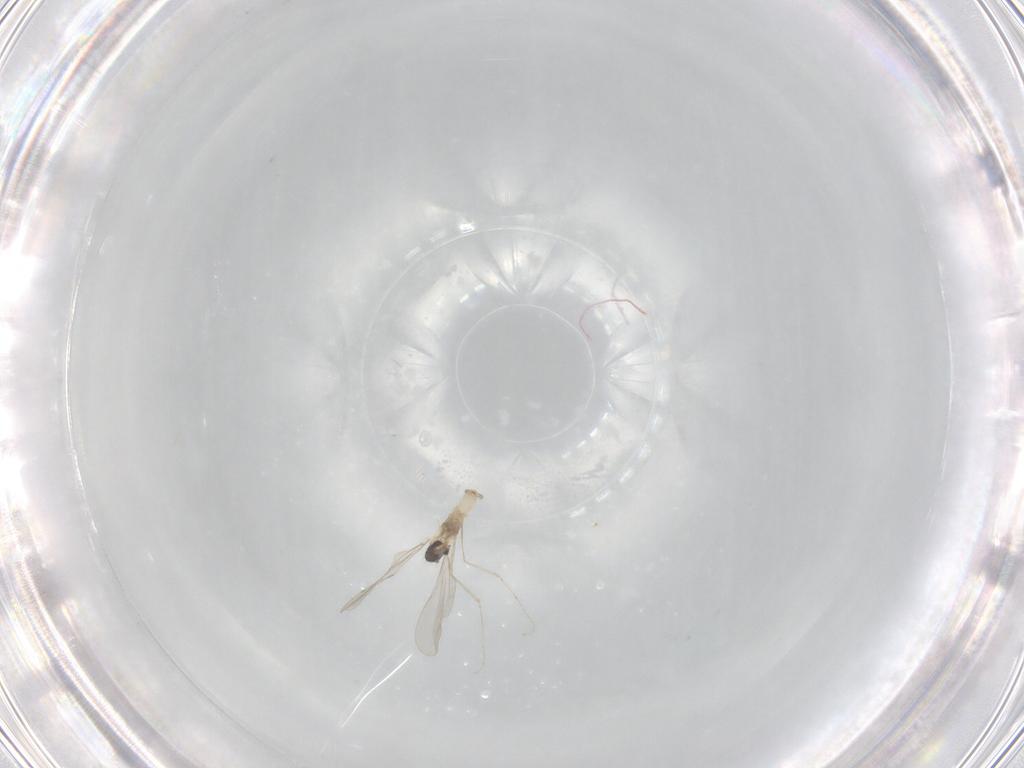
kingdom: Animalia
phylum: Arthropoda
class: Insecta
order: Diptera
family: Cecidomyiidae
